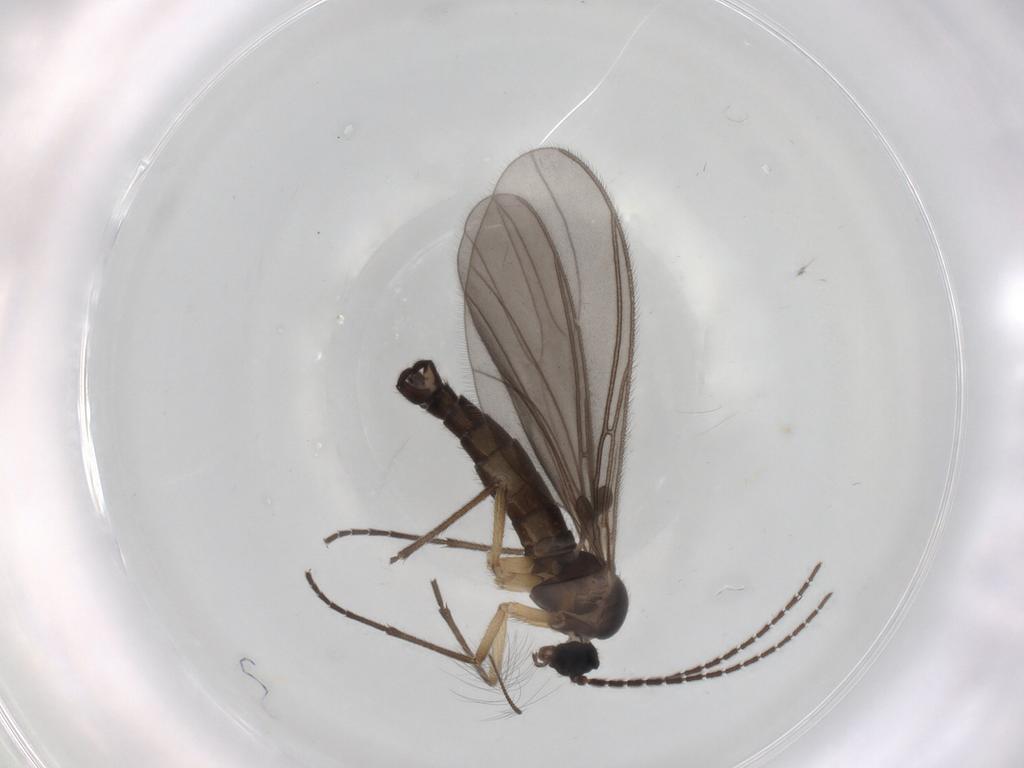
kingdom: Animalia
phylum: Arthropoda
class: Insecta
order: Diptera
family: Sciaridae
